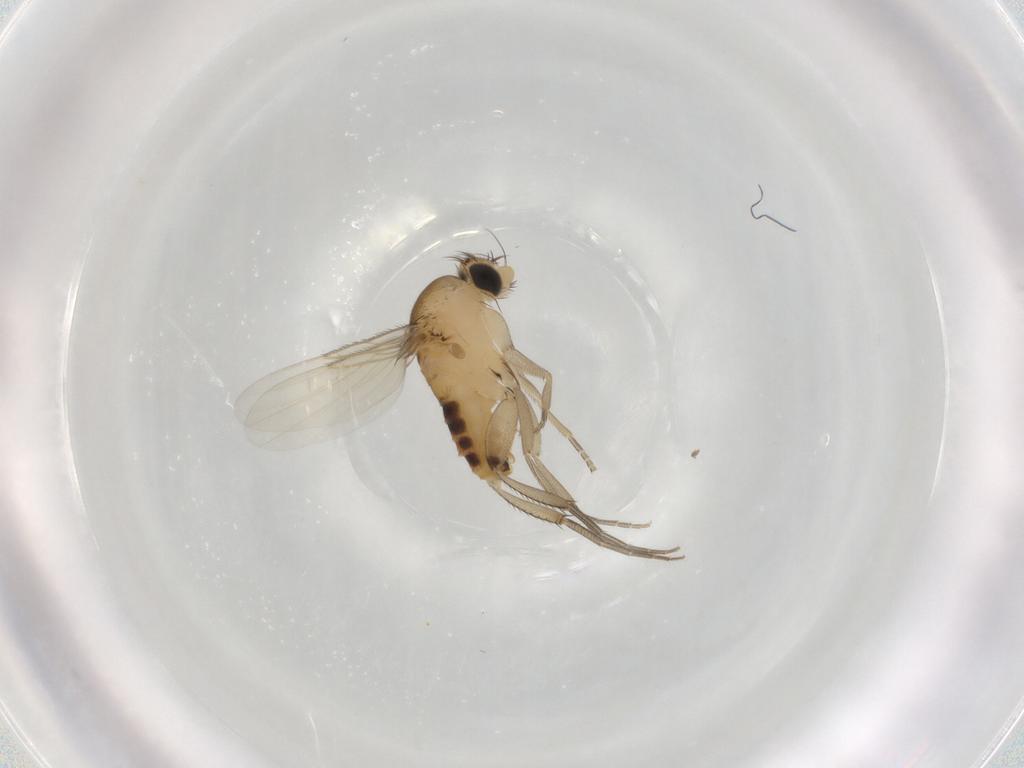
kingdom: Animalia
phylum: Arthropoda
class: Insecta
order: Diptera
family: Phoridae
